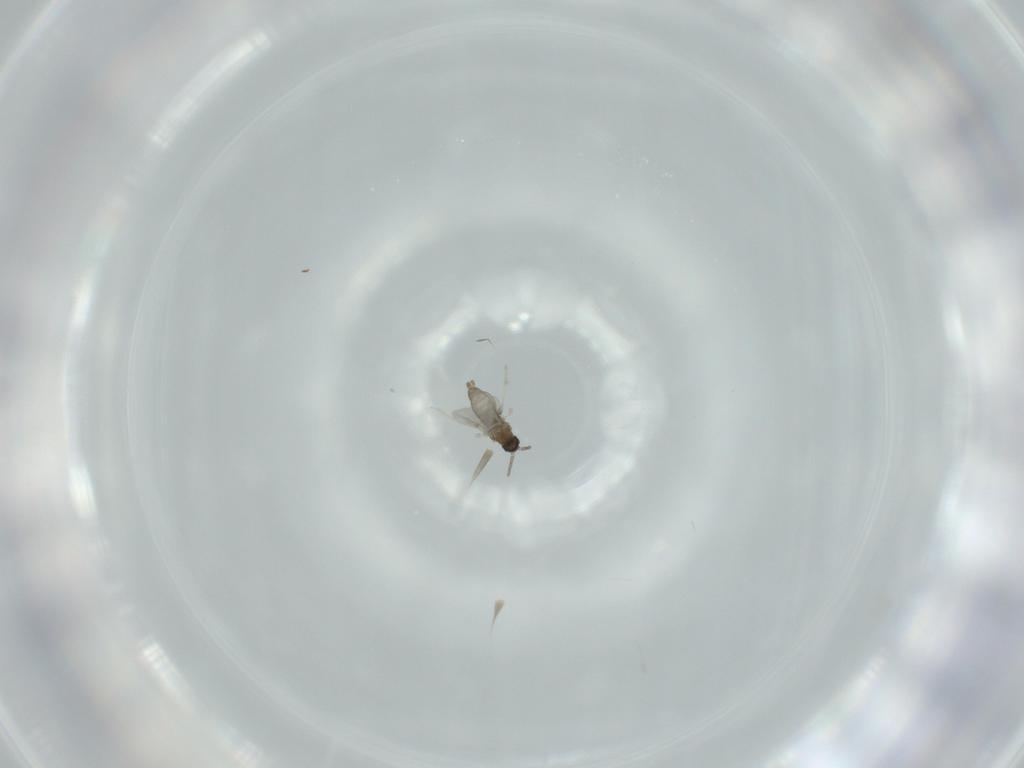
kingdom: Animalia
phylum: Arthropoda
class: Insecta
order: Diptera
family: Cecidomyiidae
